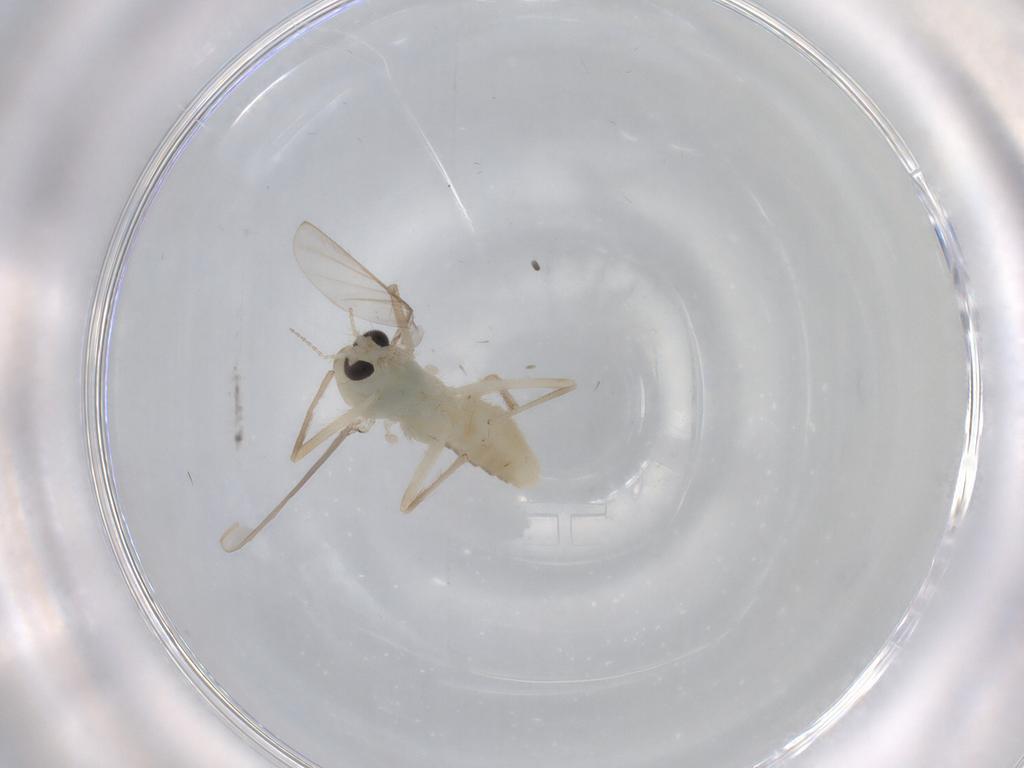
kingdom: Animalia
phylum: Arthropoda
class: Insecta
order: Diptera
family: Chironomidae
